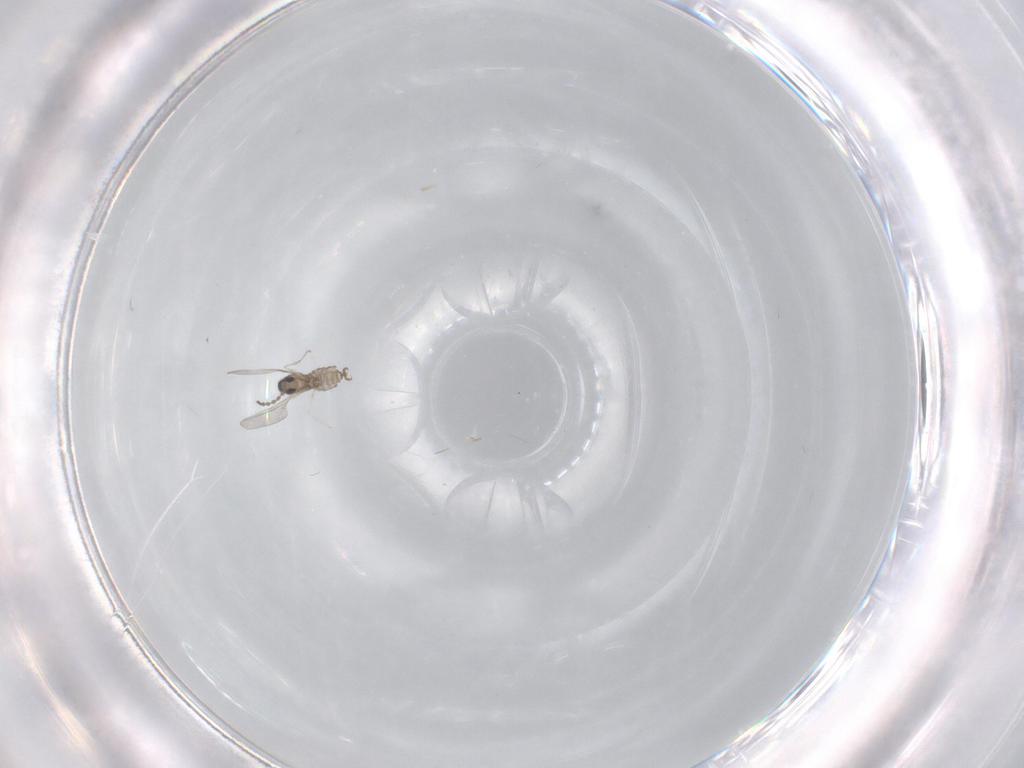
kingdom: Animalia
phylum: Arthropoda
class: Insecta
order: Diptera
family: Cecidomyiidae
